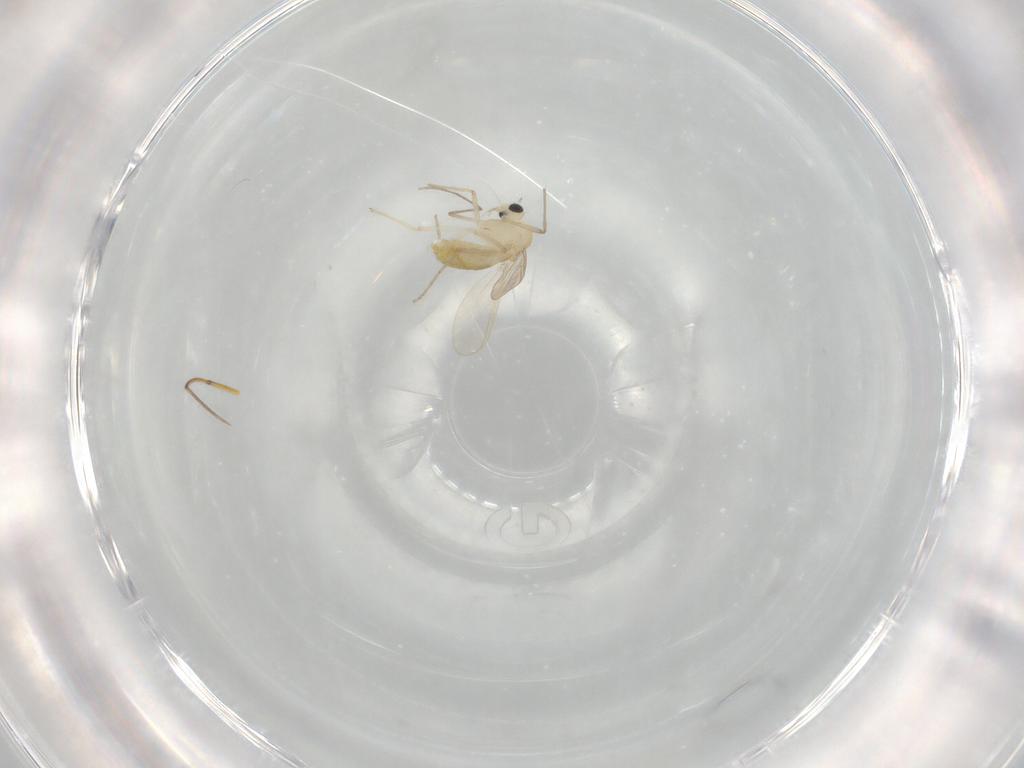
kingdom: Animalia
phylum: Arthropoda
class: Insecta
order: Diptera
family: Chironomidae
